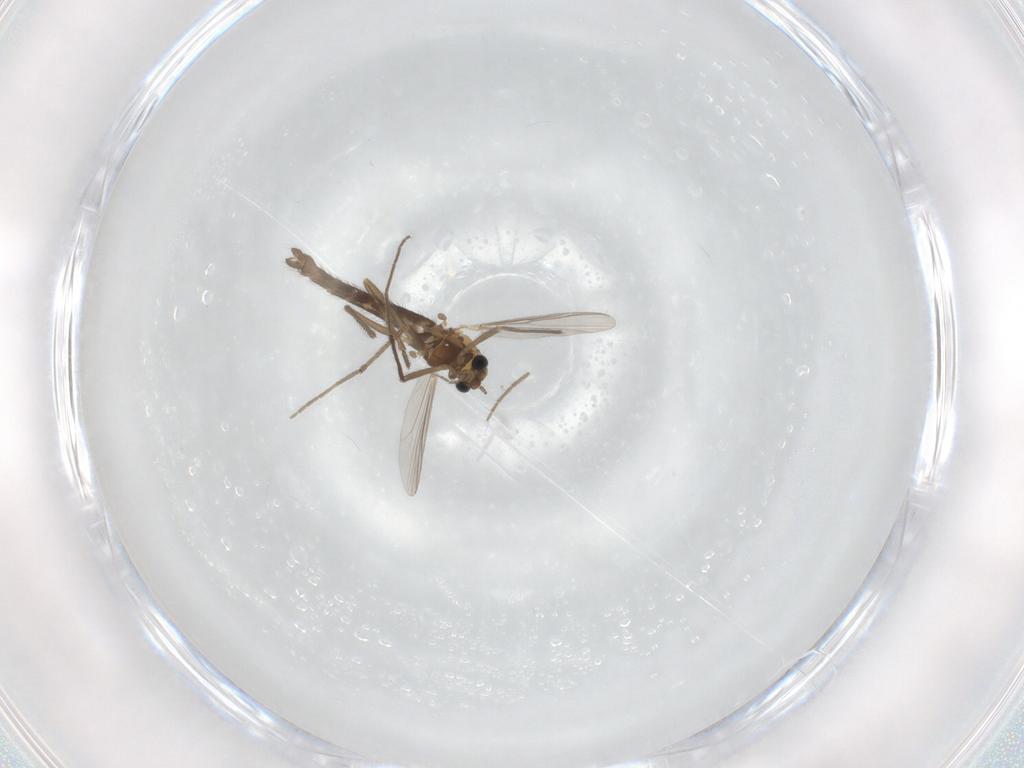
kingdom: Animalia
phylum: Arthropoda
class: Insecta
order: Diptera
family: Chironomidae
